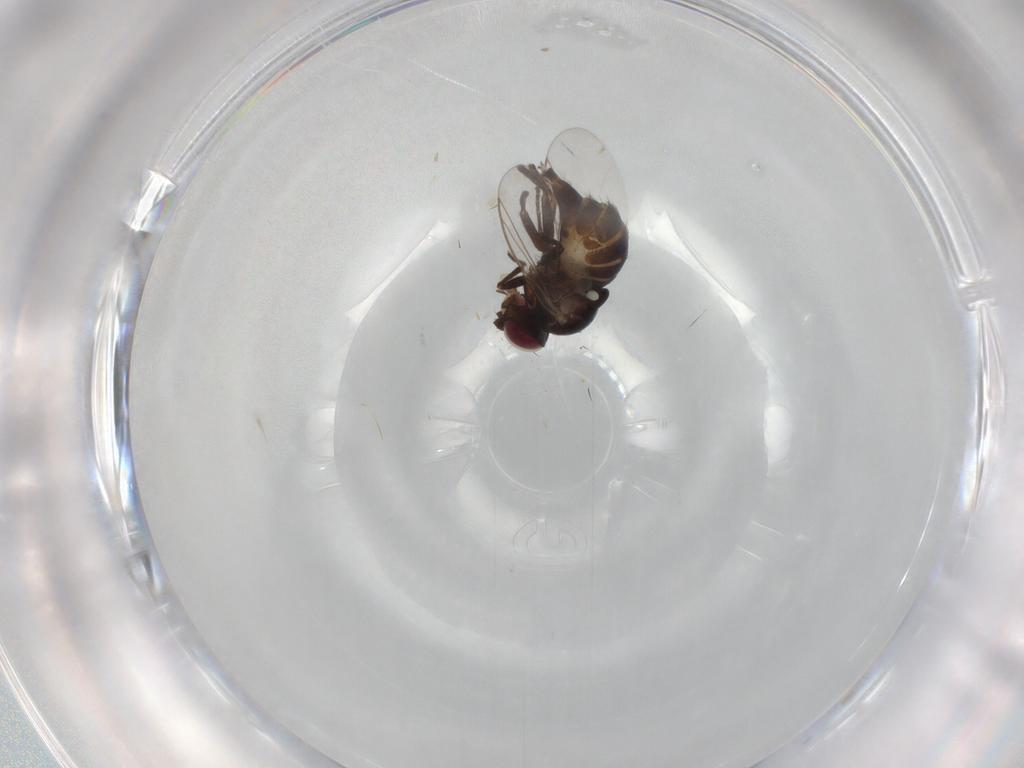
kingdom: Animalia
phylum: Arthropoda
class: Insecta
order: Diptera
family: Agromyzidae
